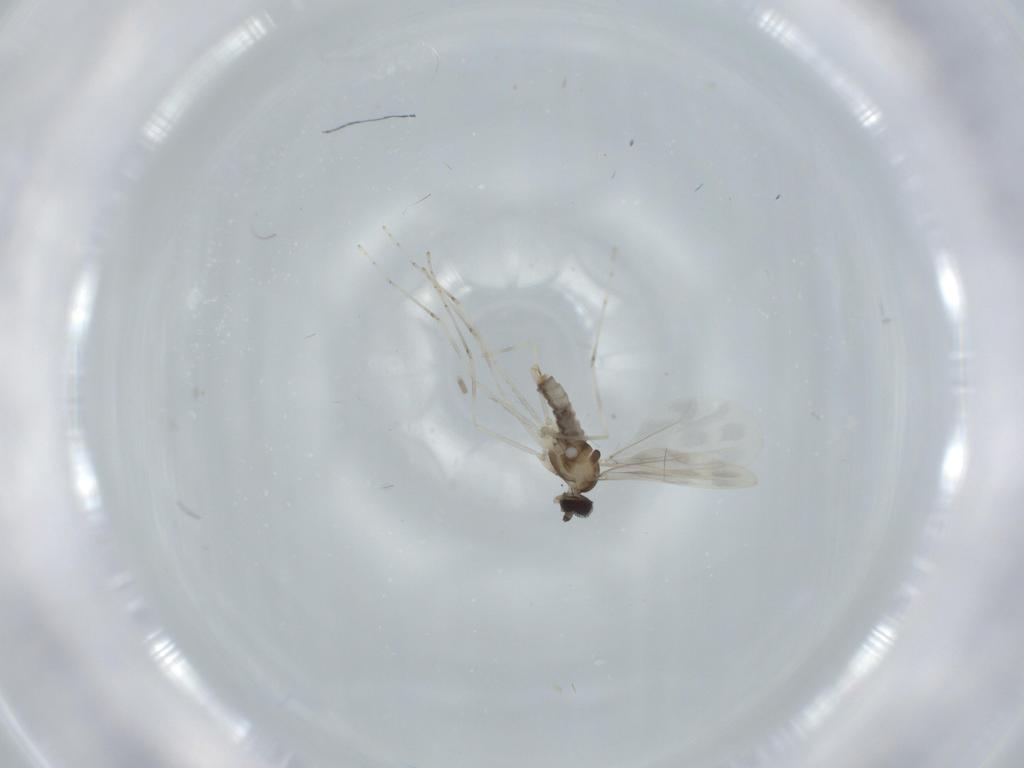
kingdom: Animalia
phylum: Arthropoda
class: Insecta
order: Diptera
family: Cecidomyiidae
